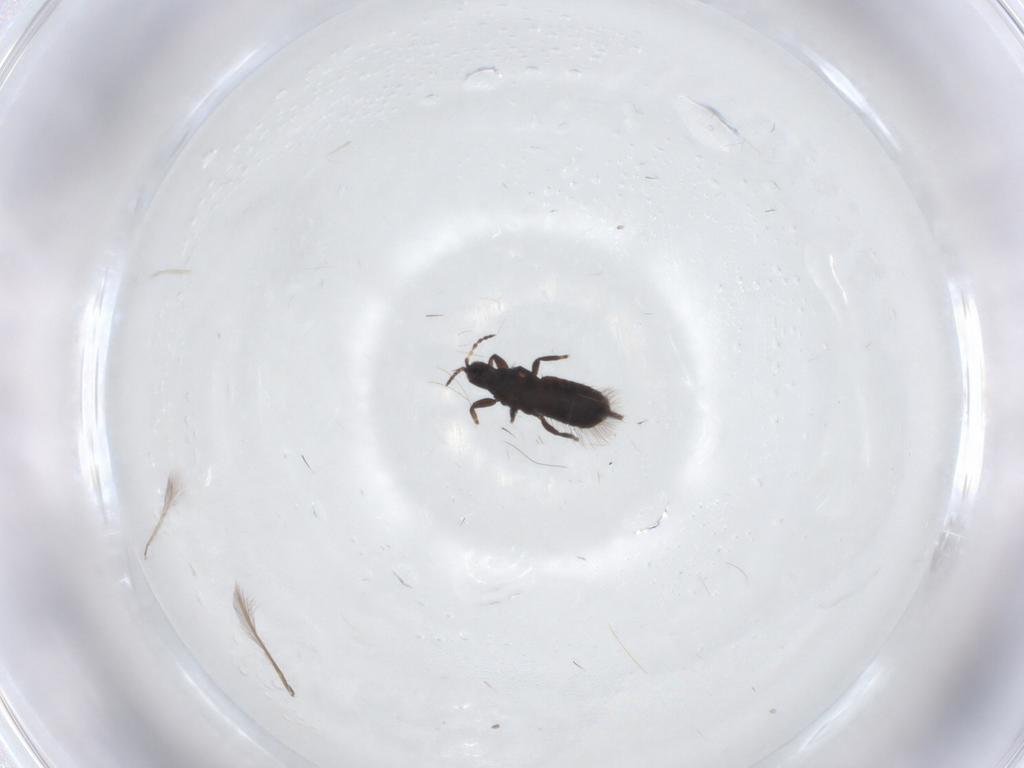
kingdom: Animalia
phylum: Arthropoda
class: Insecta
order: Thysanoptera
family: Phlaeothripidae
